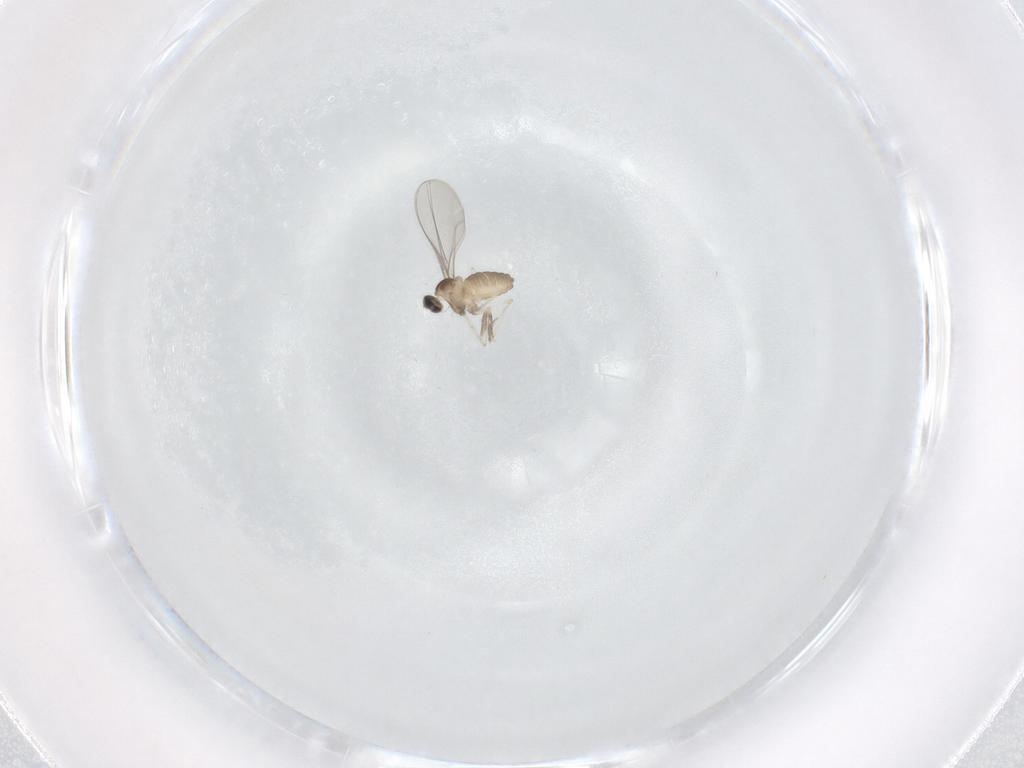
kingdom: Animalia
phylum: Arthropoda
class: Insecta
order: Diptera
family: Cecidomyiidae
